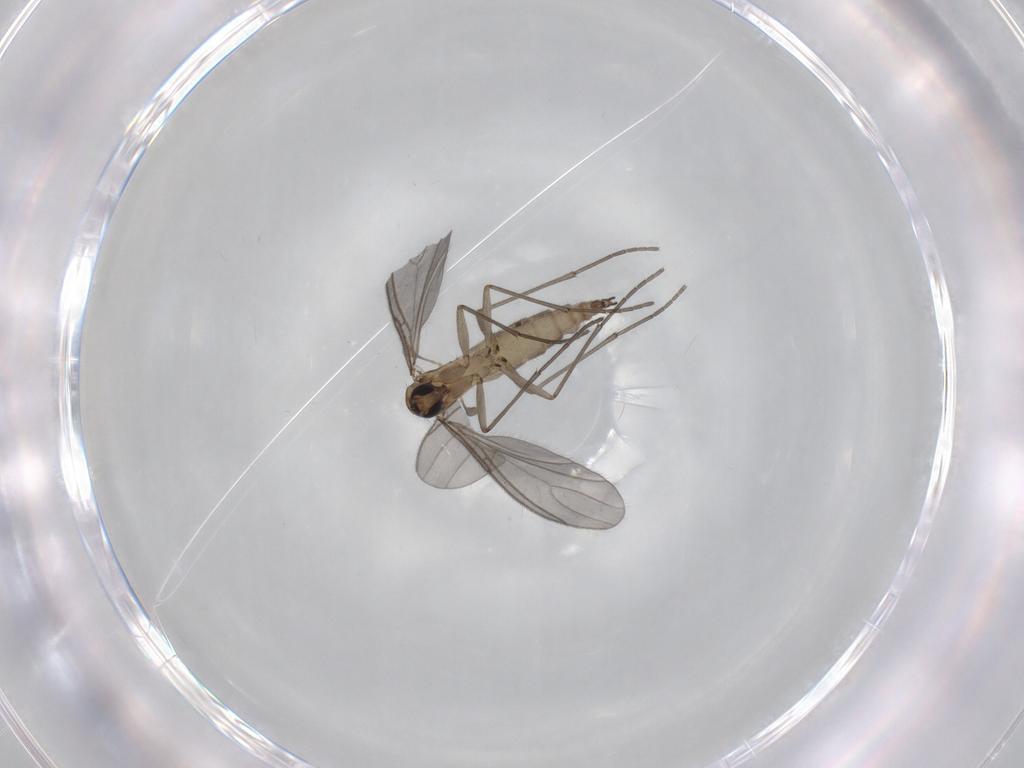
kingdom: Animalia
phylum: Arthropoda
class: Insecta
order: Diptera
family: Sciaridae
